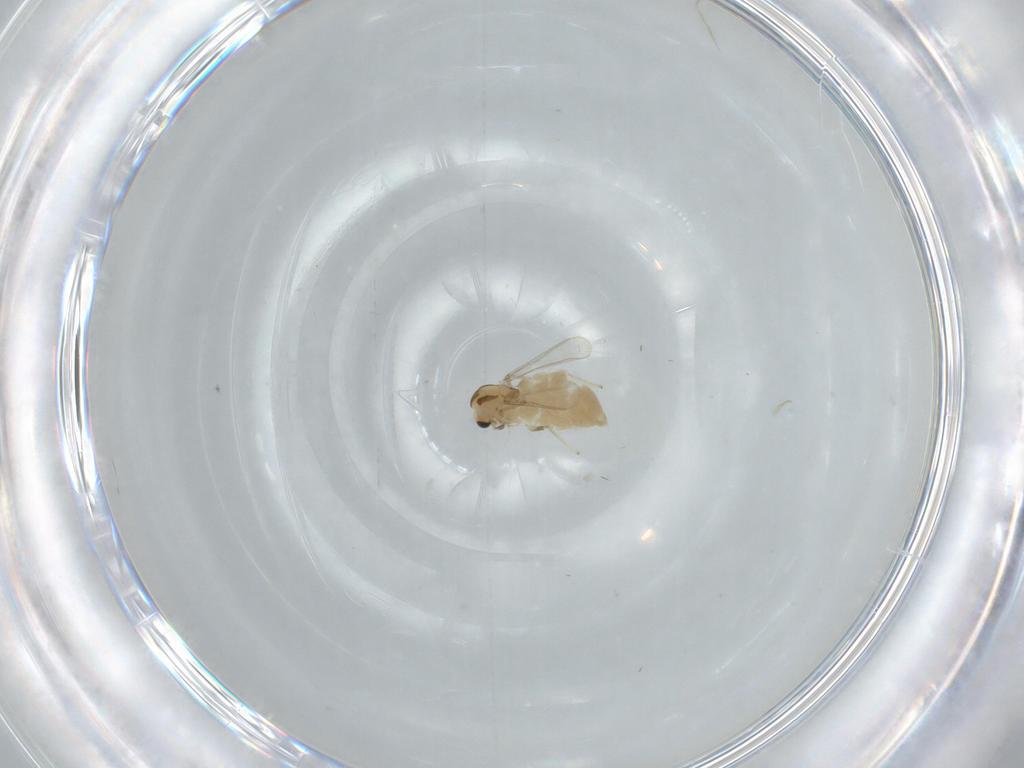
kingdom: Animalia
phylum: Arthropoda
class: Insecta
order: Diptera
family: Chironomidae
